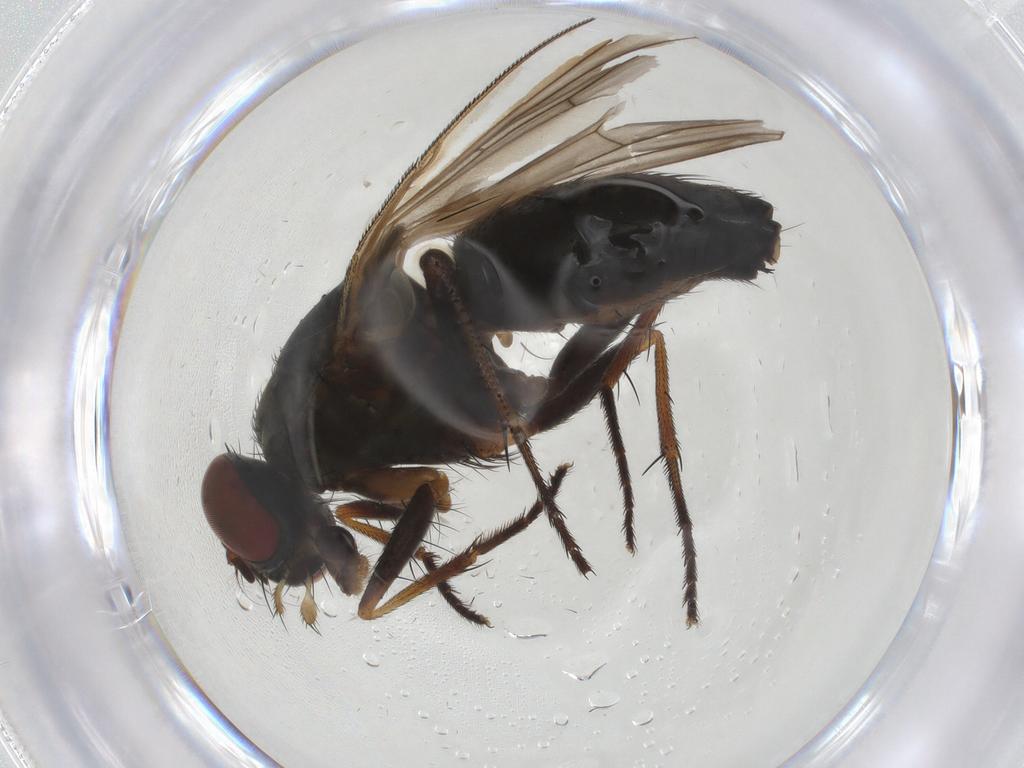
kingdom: Animalia
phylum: Arthropoda
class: Insecta
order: Diptera
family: Muscidae
